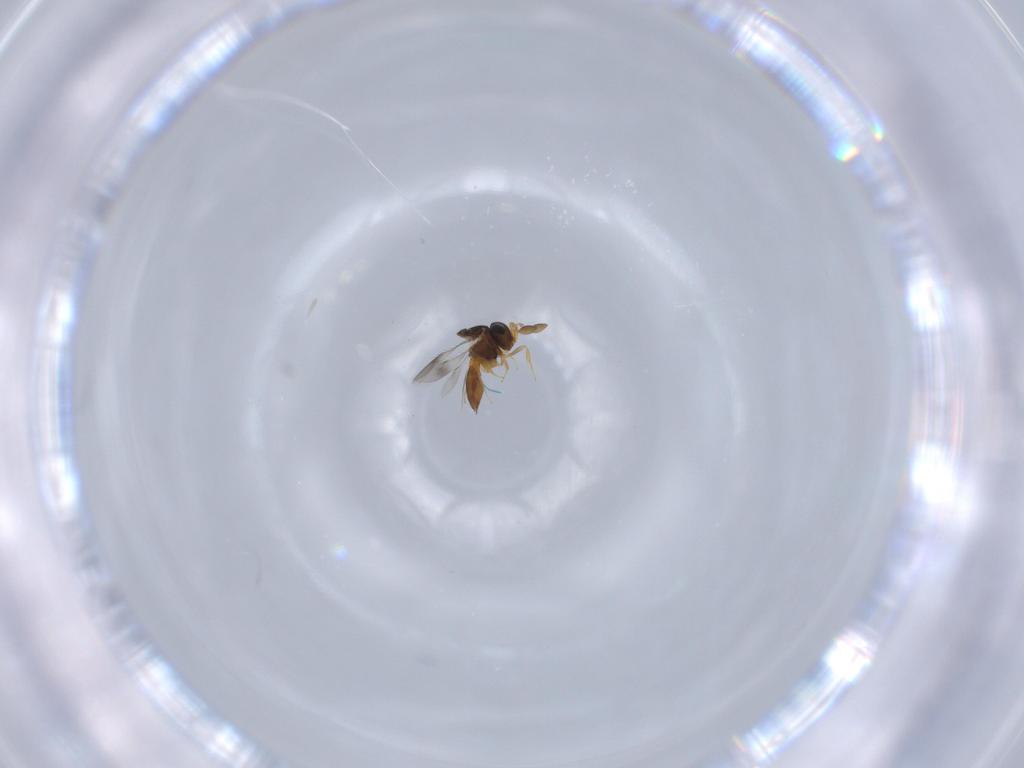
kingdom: Animalia
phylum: Arthropoda
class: Insecta
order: Hymenoptera
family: Scelionidae
